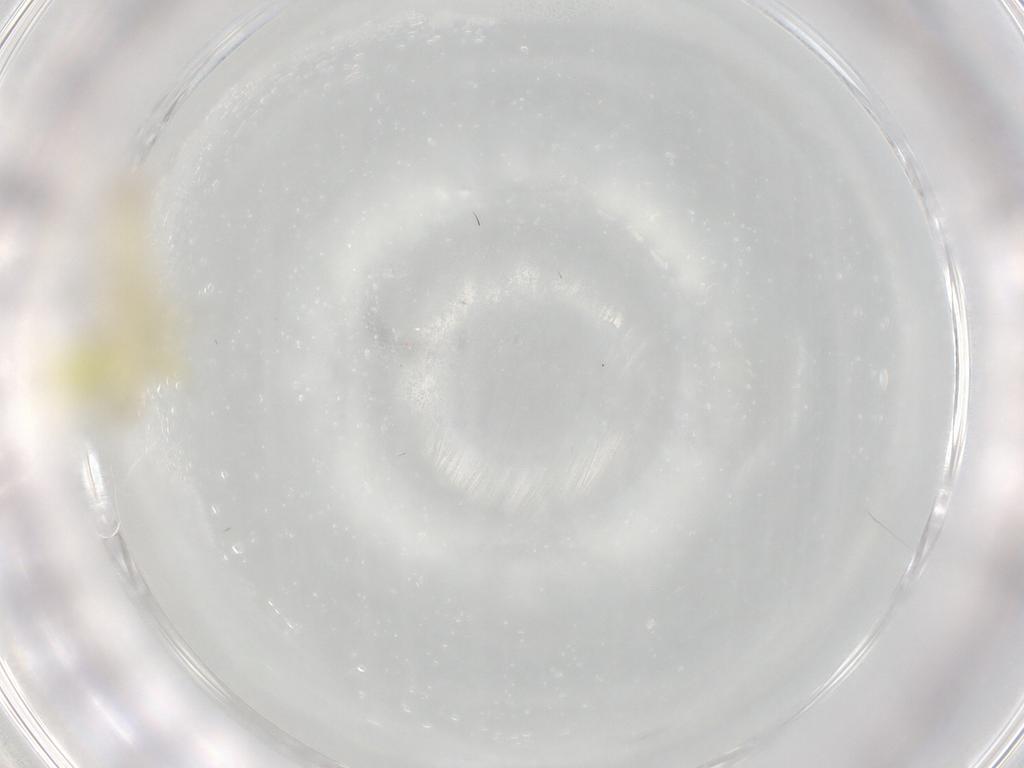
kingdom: Animalia
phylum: Arthropoda
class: Insecta
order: Hemiptera
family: Cicadellidae
